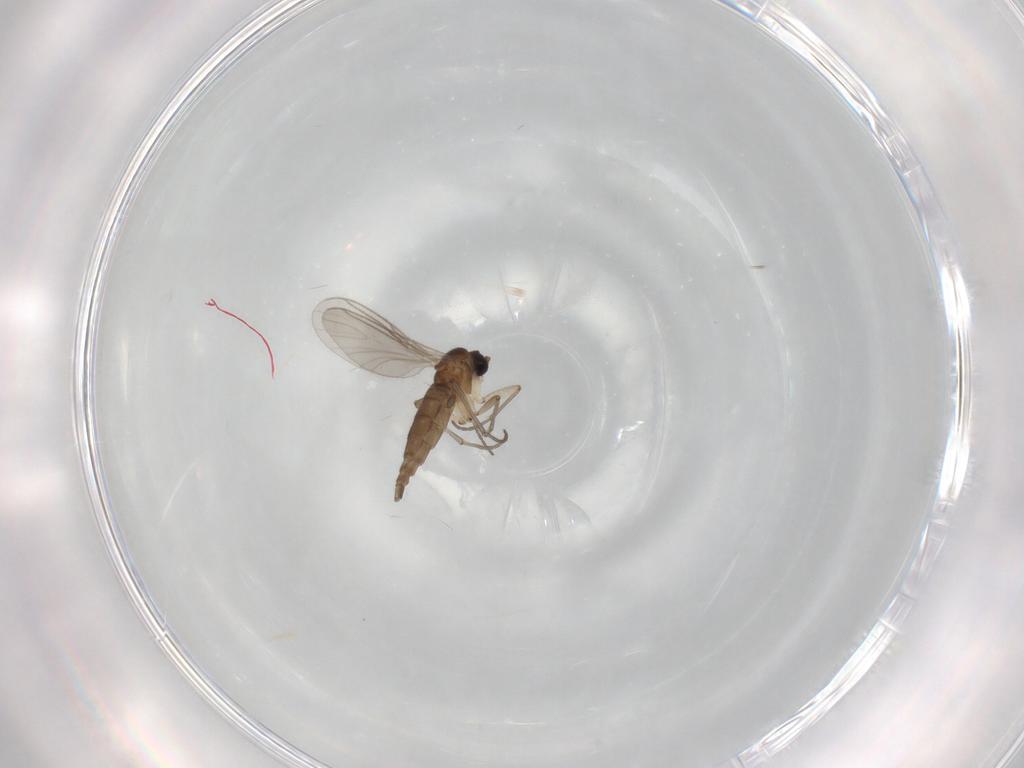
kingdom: Animalia
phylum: Arthropoda
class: Insecta
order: Diptera
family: Sciaridae
